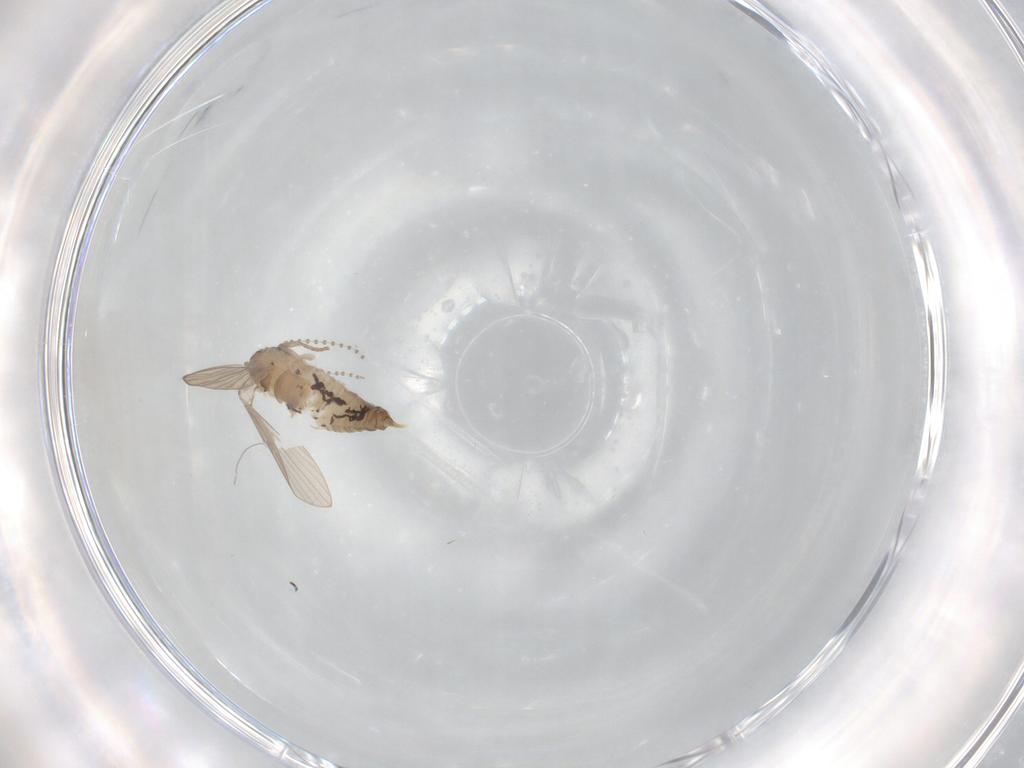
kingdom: Animalia
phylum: Arthropoda
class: Insecta
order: Diptera
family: Psychodidae
